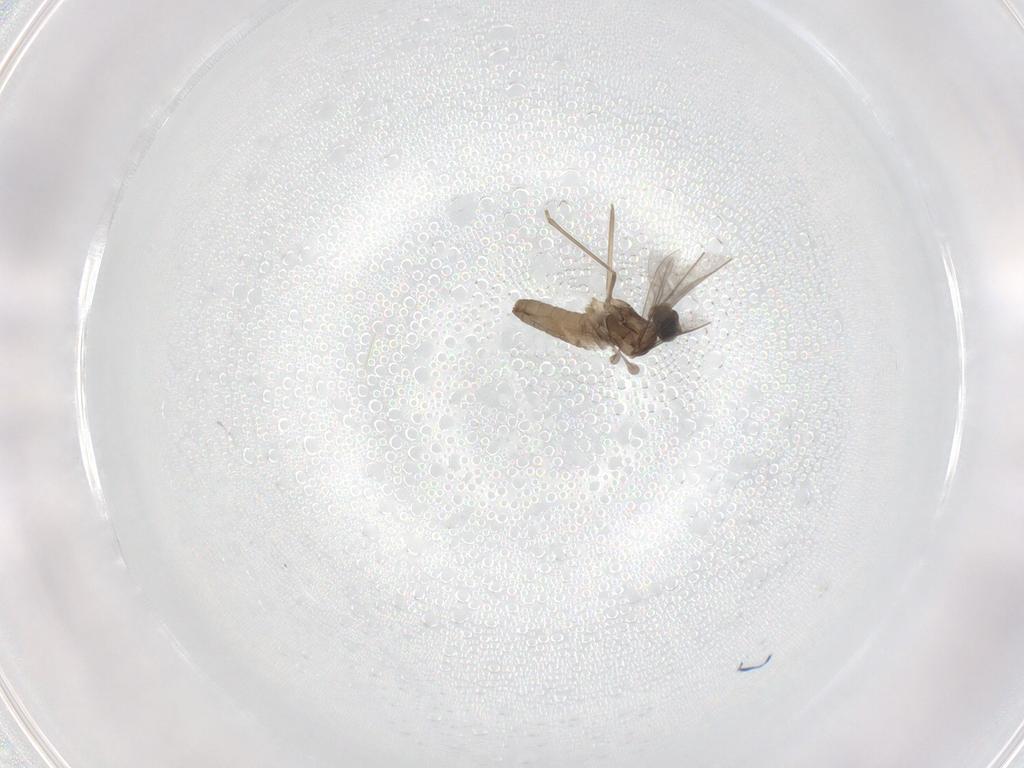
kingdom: Animalia
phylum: Arthropoda
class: Insecta
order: Diptera
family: Cecidomyiidae
